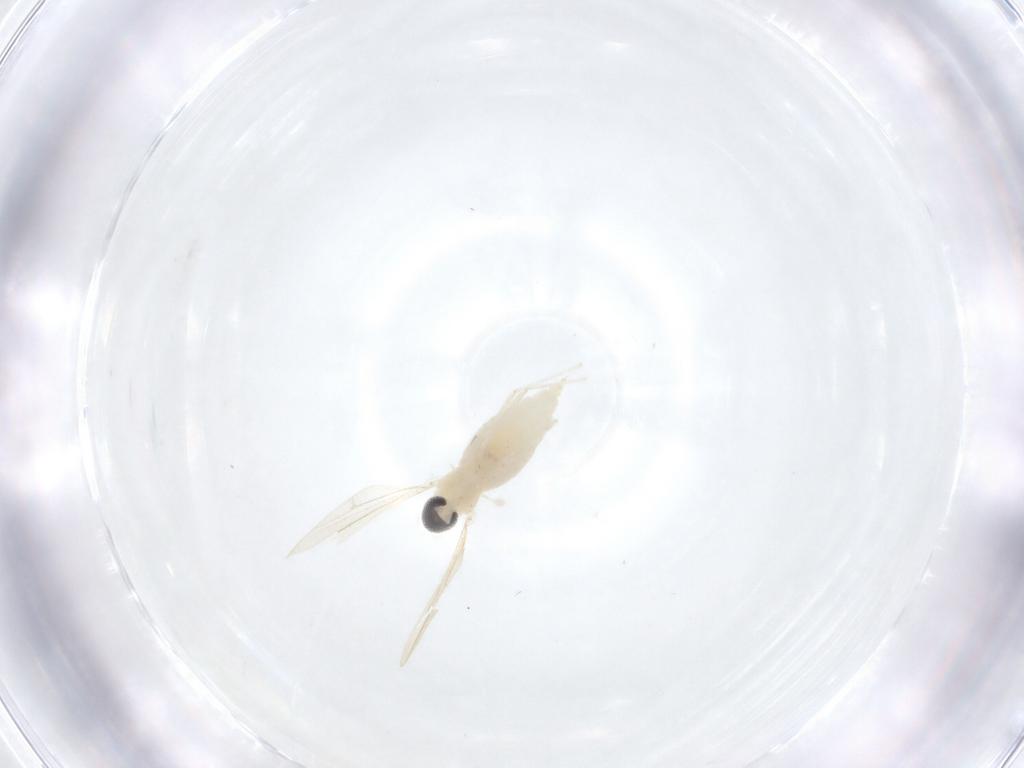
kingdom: Animalia
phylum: Arthropoda
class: Insecta
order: Diptera
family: Cecidomyiidae
